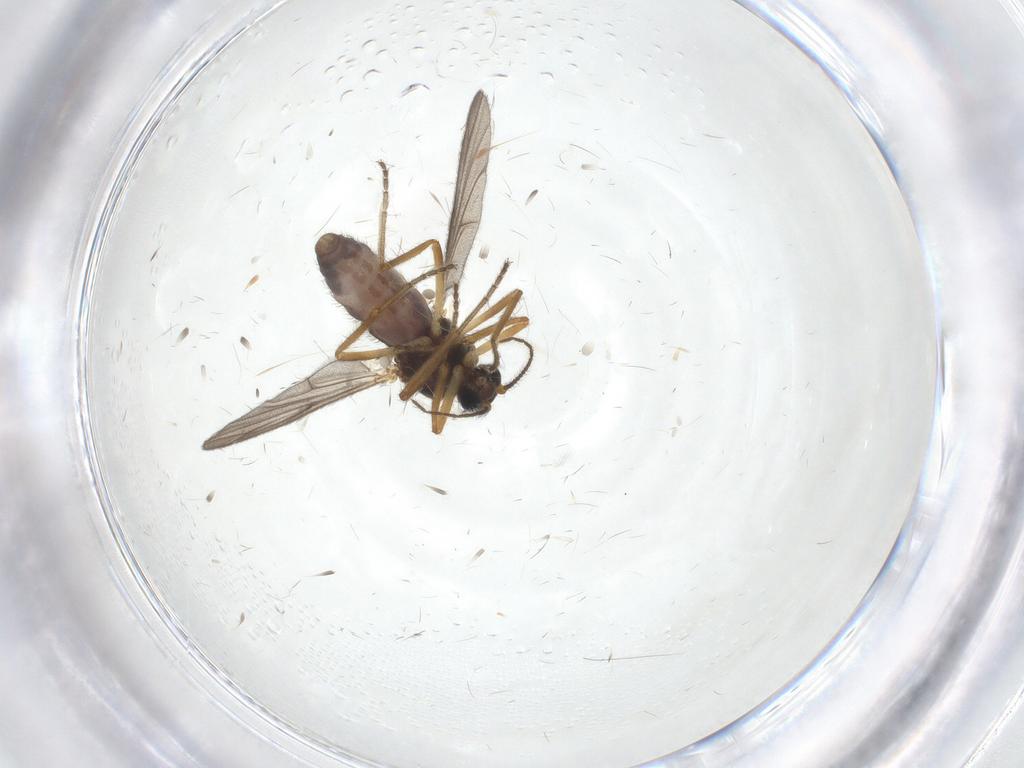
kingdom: Animalia
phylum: Arthropoda
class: Insecta
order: Diptera
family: Ceratopogonidae
